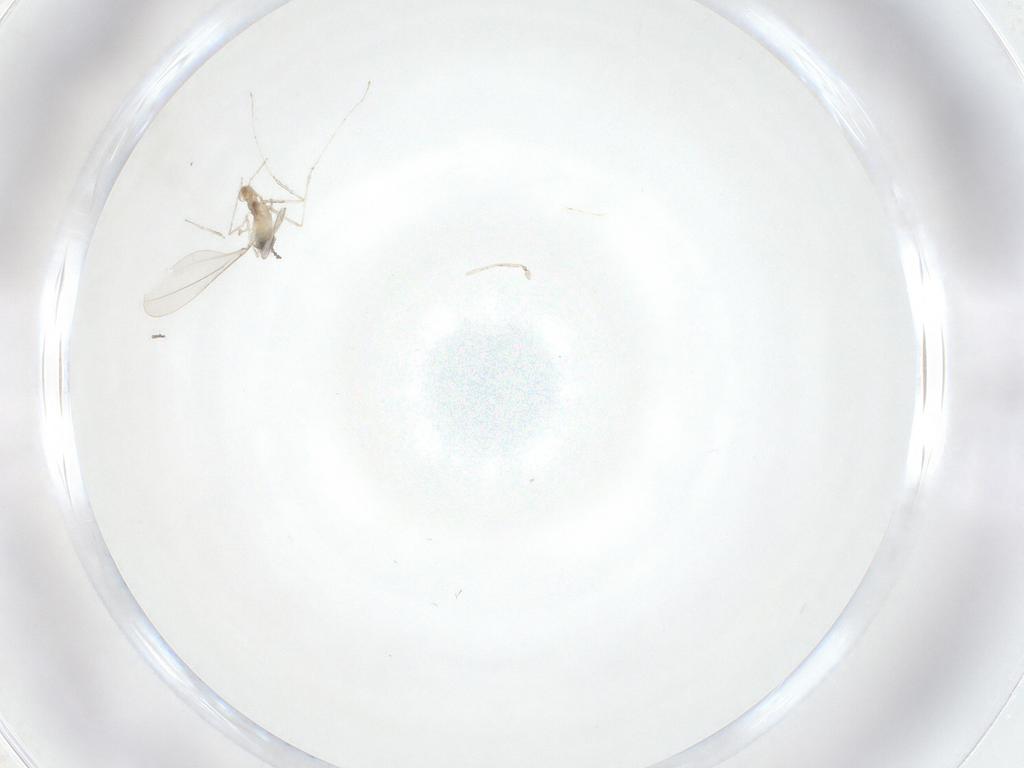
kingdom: Animalia
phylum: Arthropoda
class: Insecta
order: Diptera
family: Cecidomyiidae
